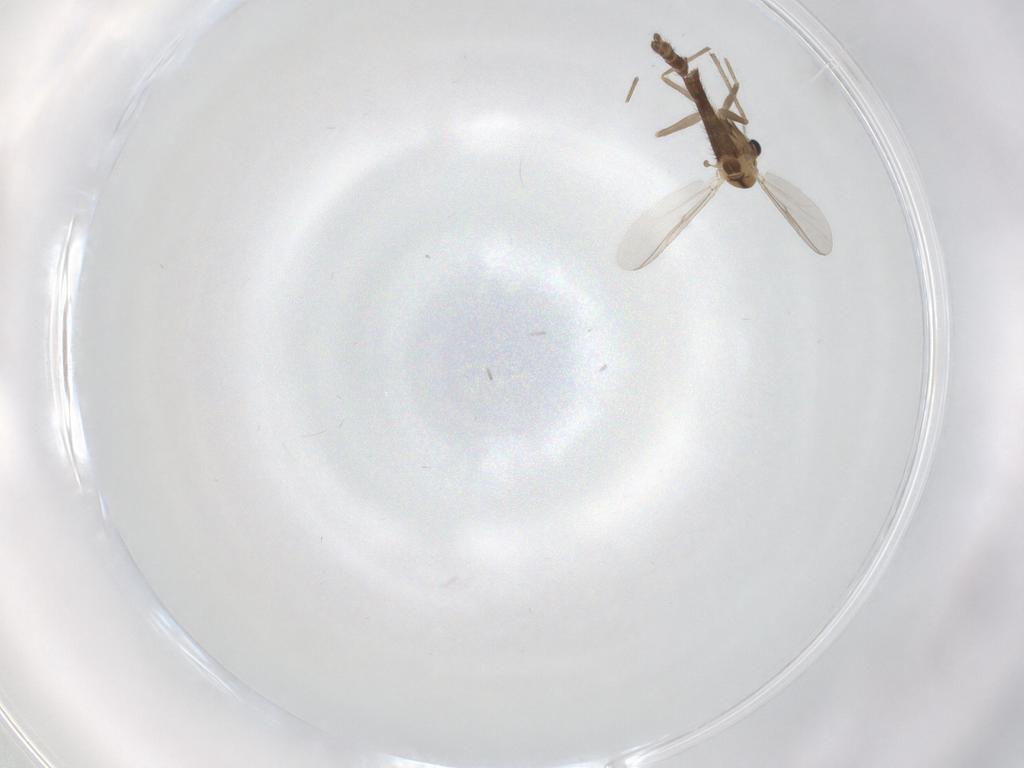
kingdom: Animalia
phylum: Arthropoda
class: Insecta
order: Diptera
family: Chironomidae
